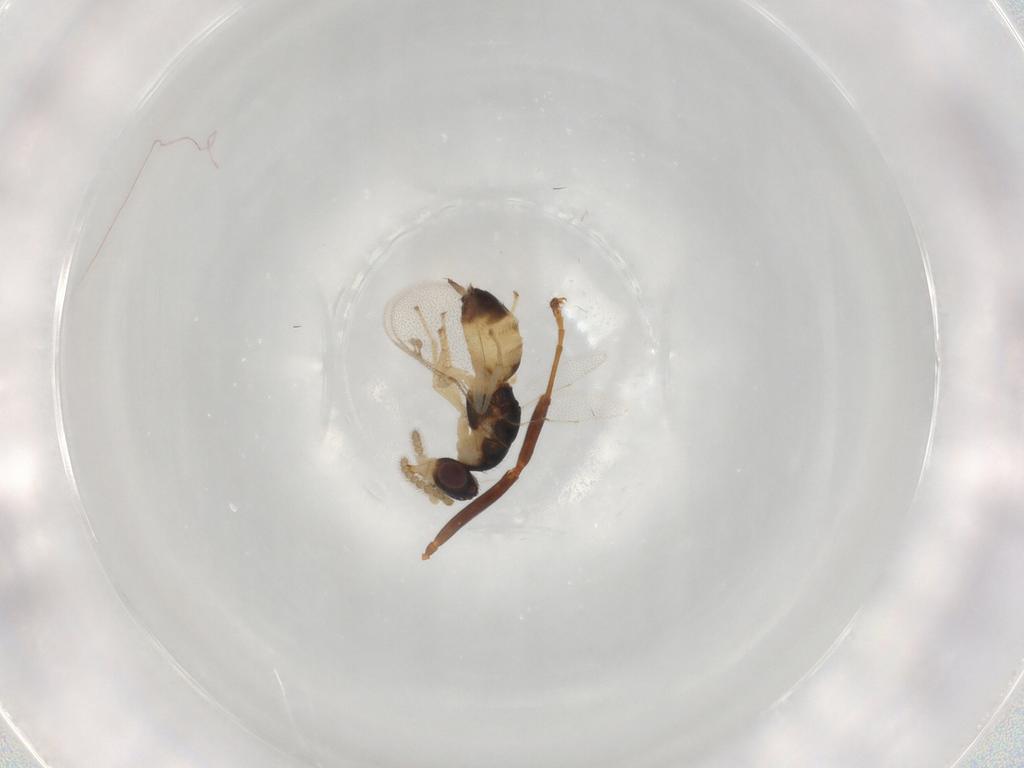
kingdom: Animalia
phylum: Arthropoda
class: Insecta
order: Hymenoptera
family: Formicidae
